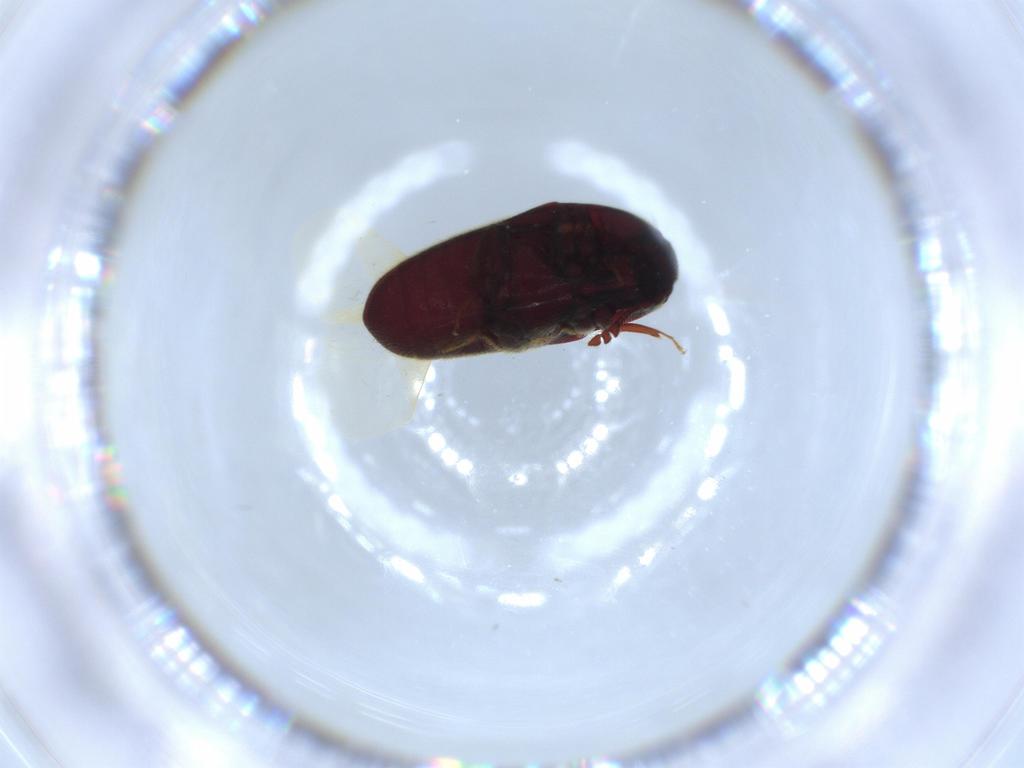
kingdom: Animalia
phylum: Arthropoda
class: Insecta
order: Coleoptera
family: Throscidae
